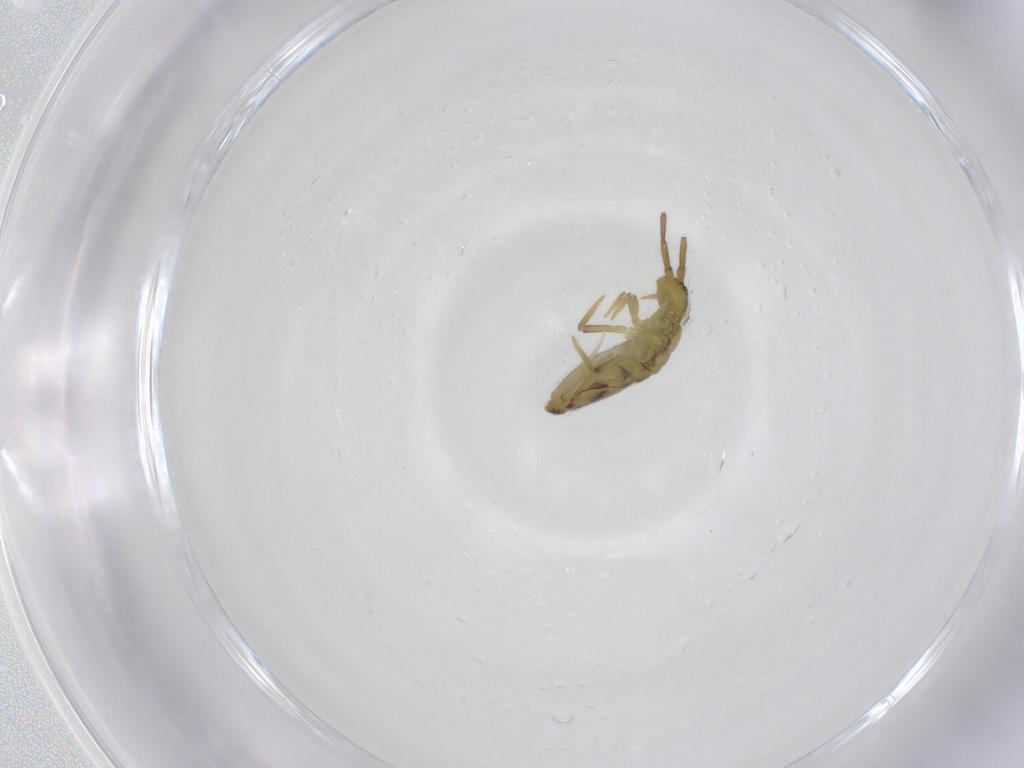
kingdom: Animalia
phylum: Arthropoda
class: Collembola
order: Entomobryomorpha
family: Entomobryidae
